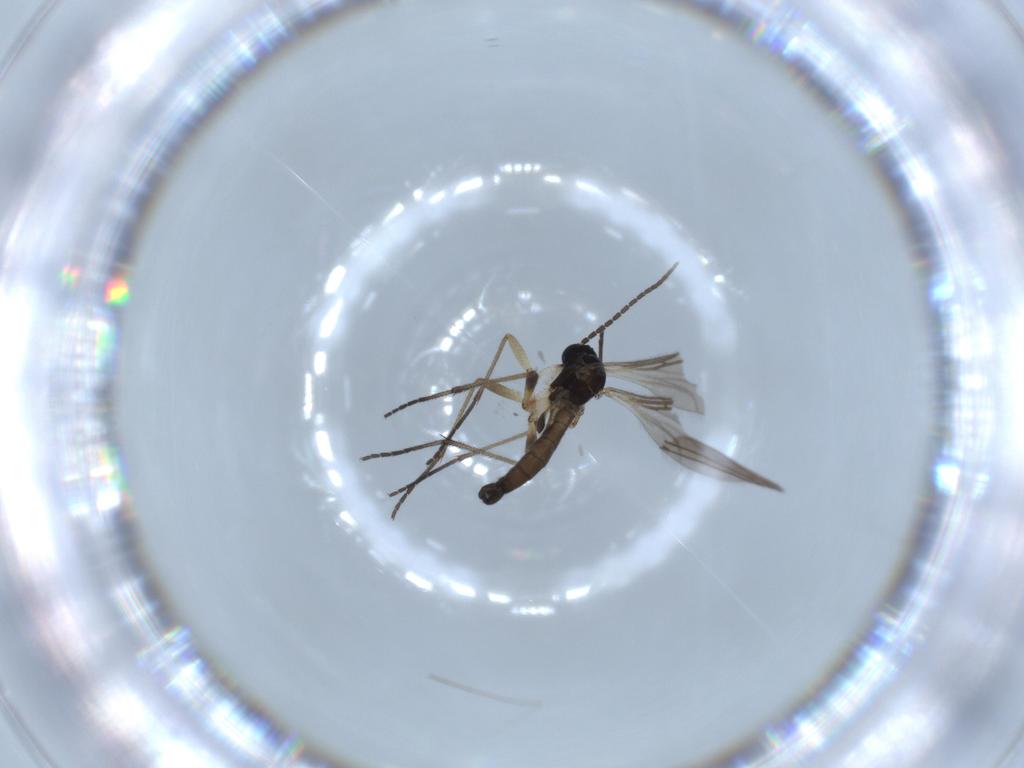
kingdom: Animalia
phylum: Arthropoda
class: Insecta
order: Diptera
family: Sciaridae
